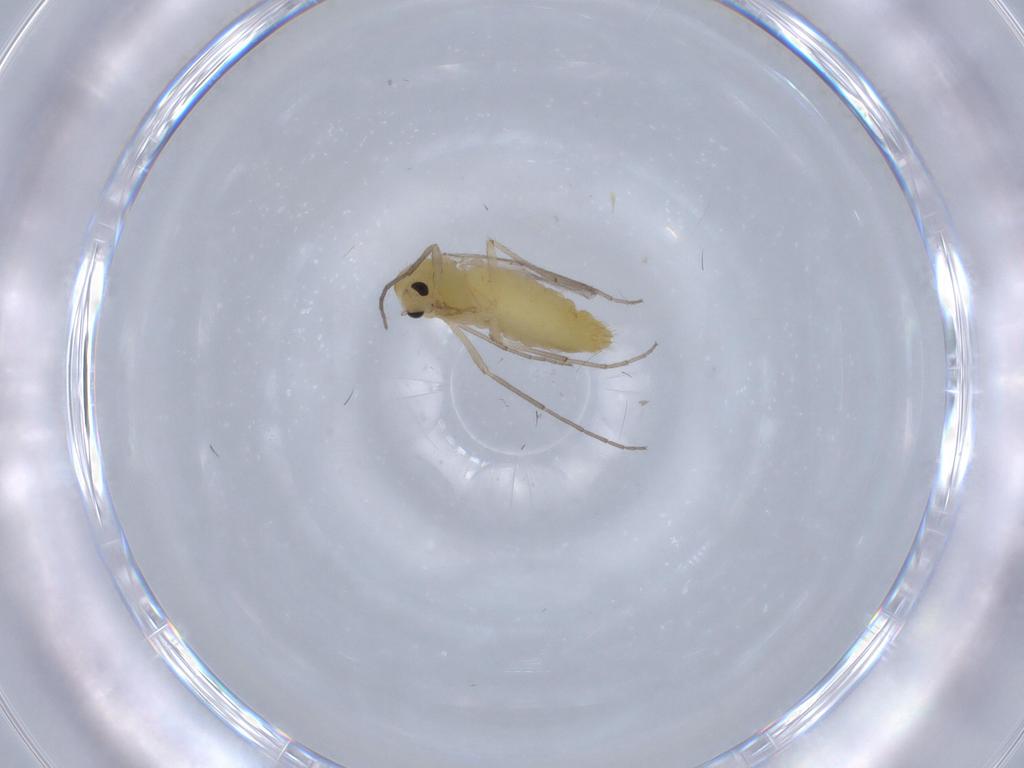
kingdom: Animalia
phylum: Arthropoda
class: Insecta
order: Diptera
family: Chironomidae
